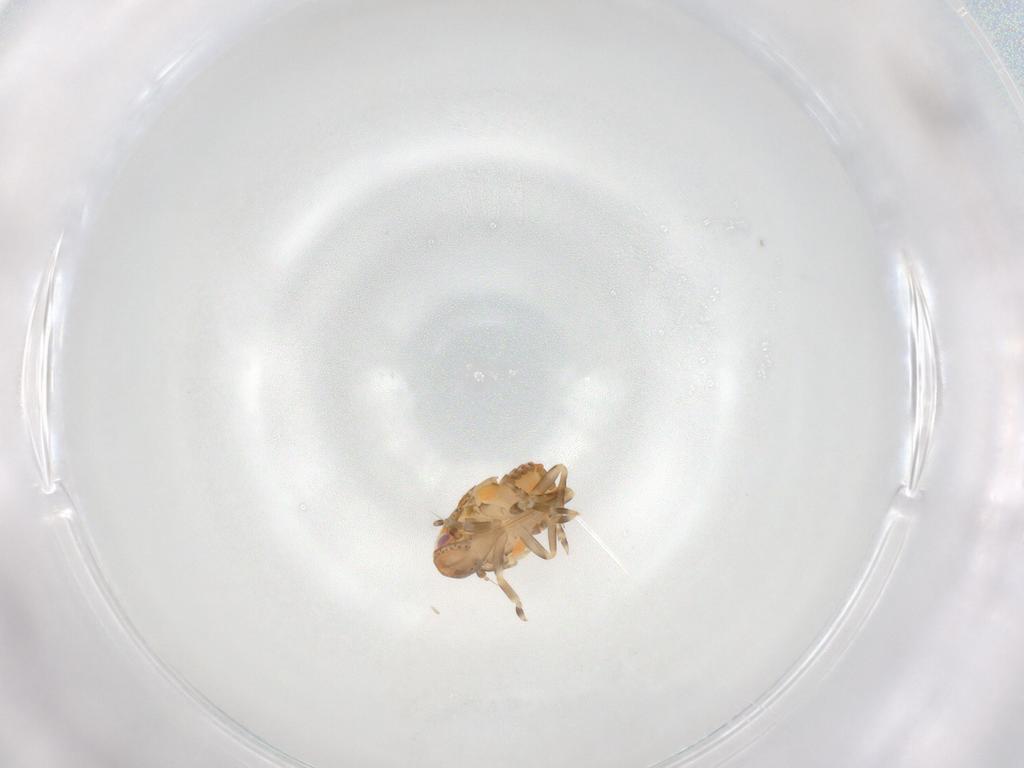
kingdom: Animalia
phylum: Arthropoda
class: Insecta
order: Hemiptera
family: Flatidae
